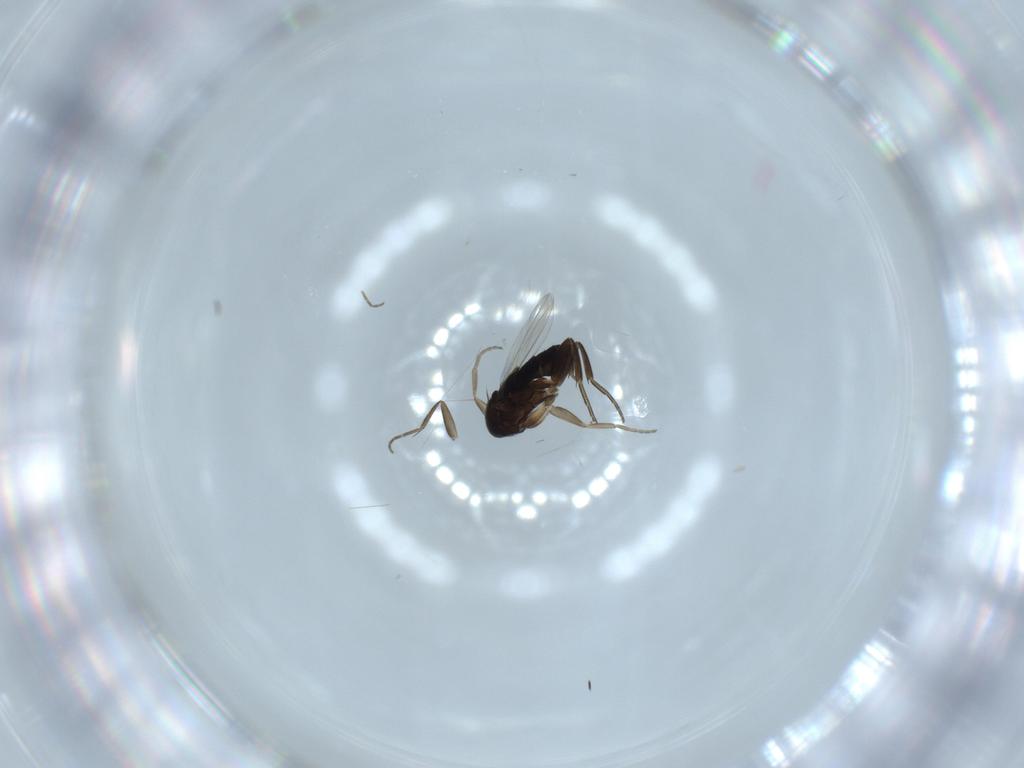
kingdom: Animalia
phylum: Arthropoda
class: Insecta
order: Diptera
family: Phoridae
